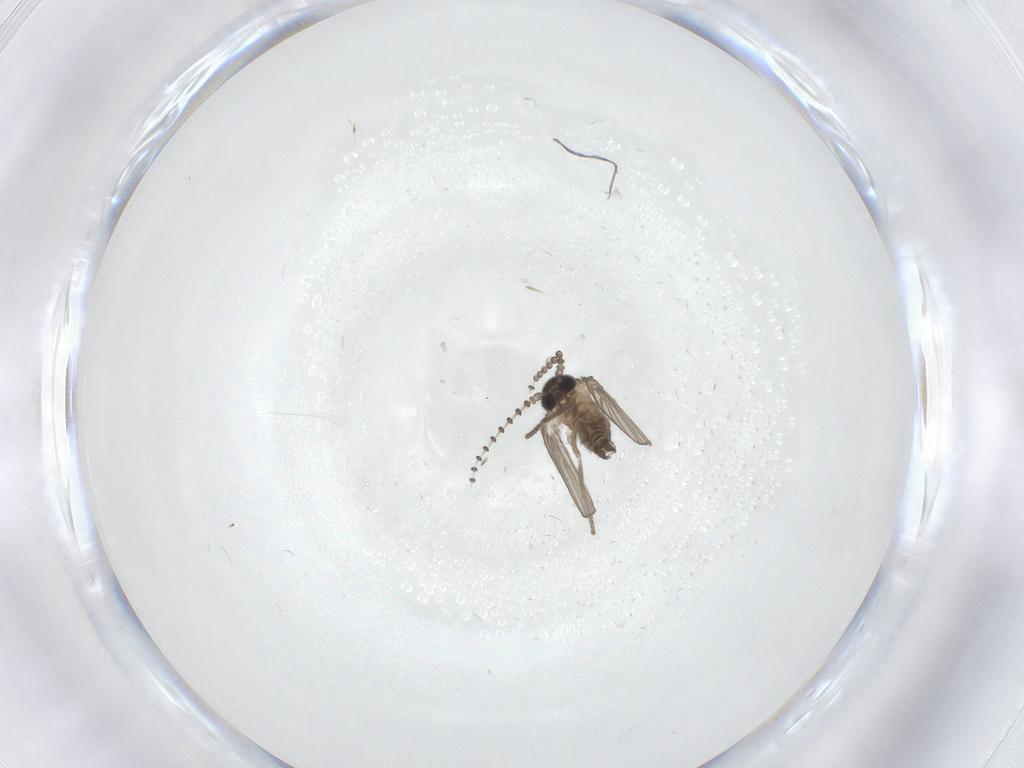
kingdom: Animalia
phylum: Arthropoda
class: Insecta
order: Diptera
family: Psychodidae
